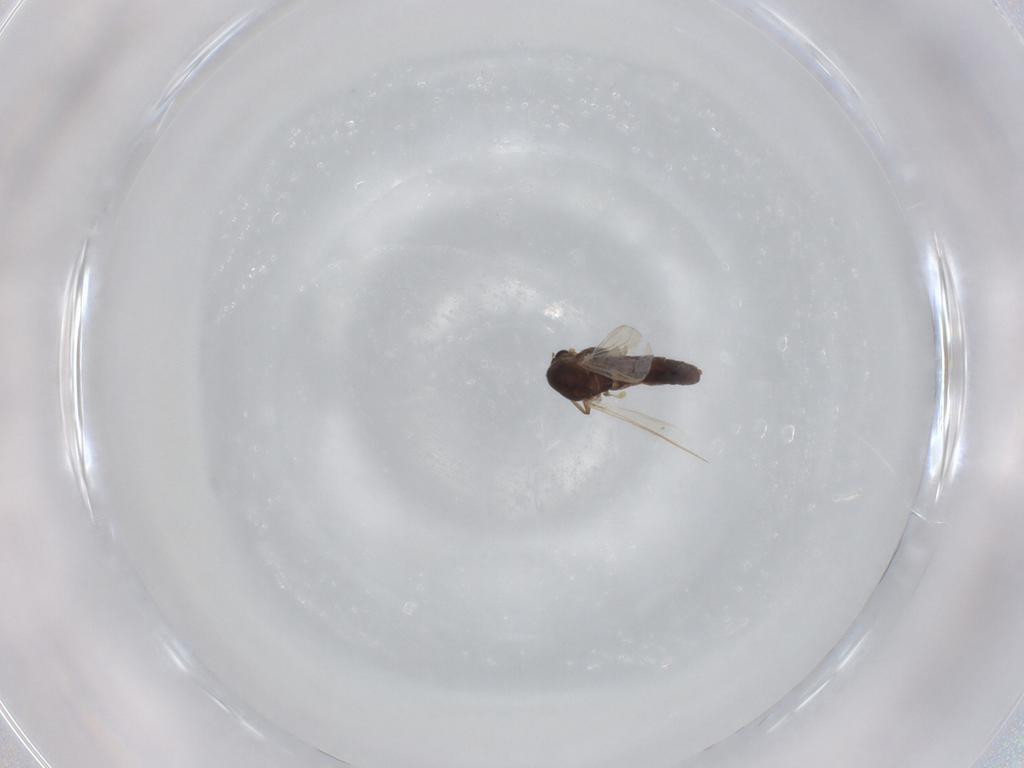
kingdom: Animalia
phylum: Arthropoda
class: Insecta
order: Diptera
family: Chironomidae
